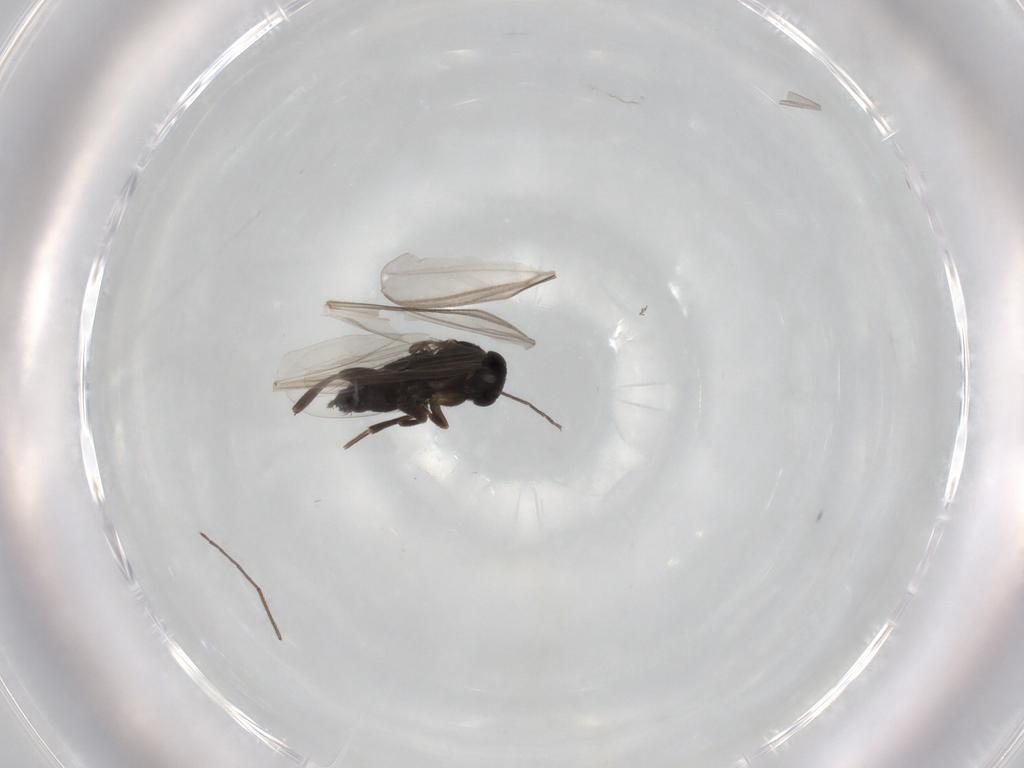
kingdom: Animalia
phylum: Arthropoda
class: Insecta
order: Diptera
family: Phoridae
